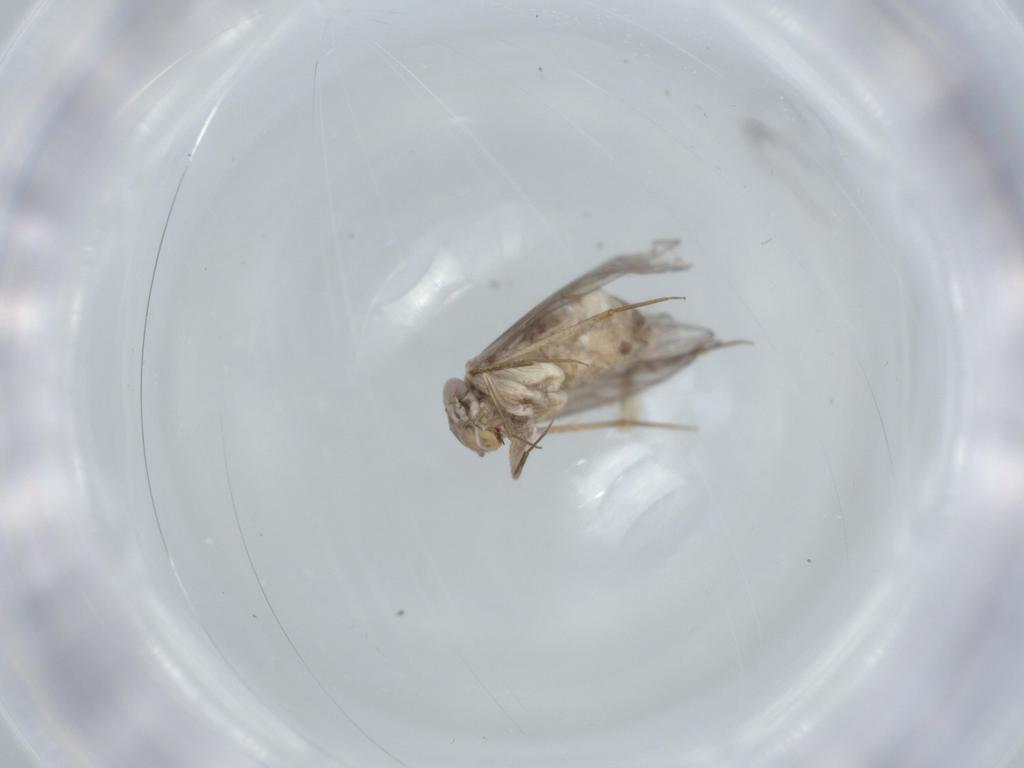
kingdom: Animalia
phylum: Arthropoda
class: Insecta
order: Psocodea
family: Lepidopsocidae
